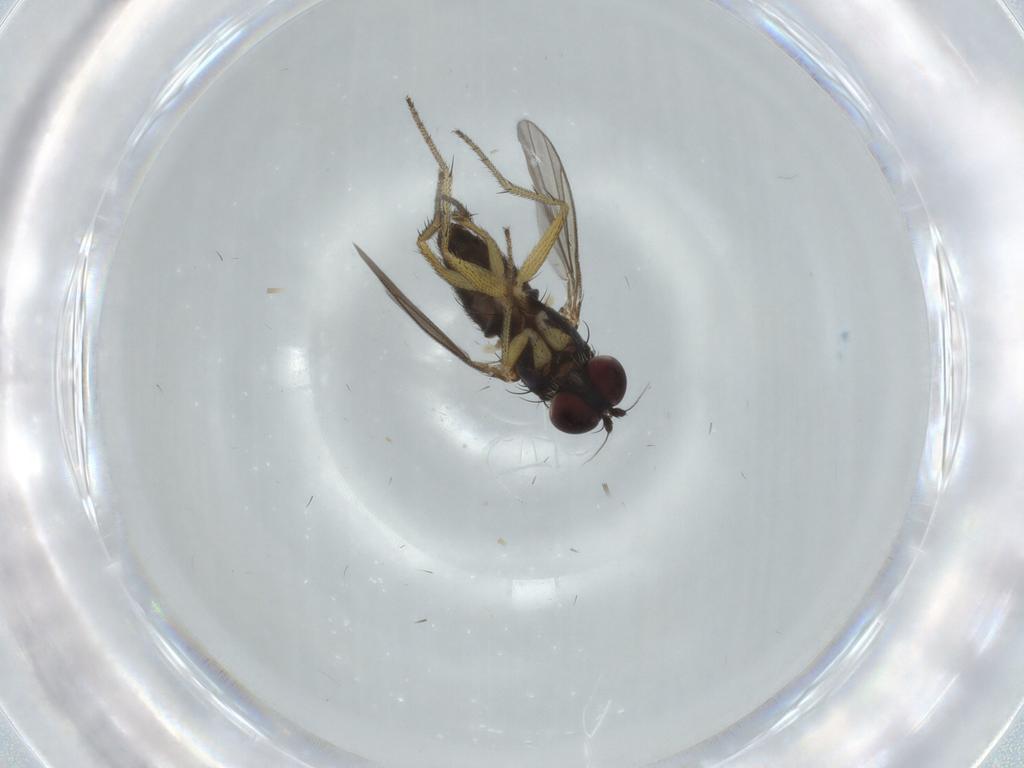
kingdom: Animalia
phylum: Arthropoda
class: Insecta
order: Diptera
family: Dolichopodidae
